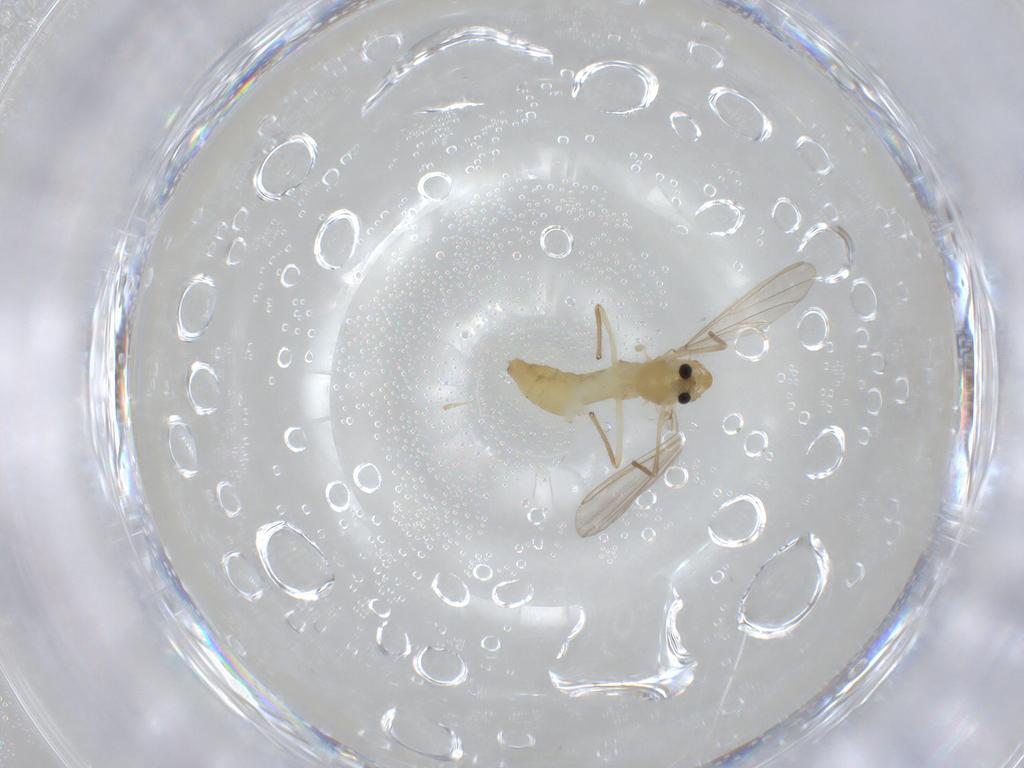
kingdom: Animalia
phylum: Arthropoda
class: Insecta
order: Diptera
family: Chironomidae
